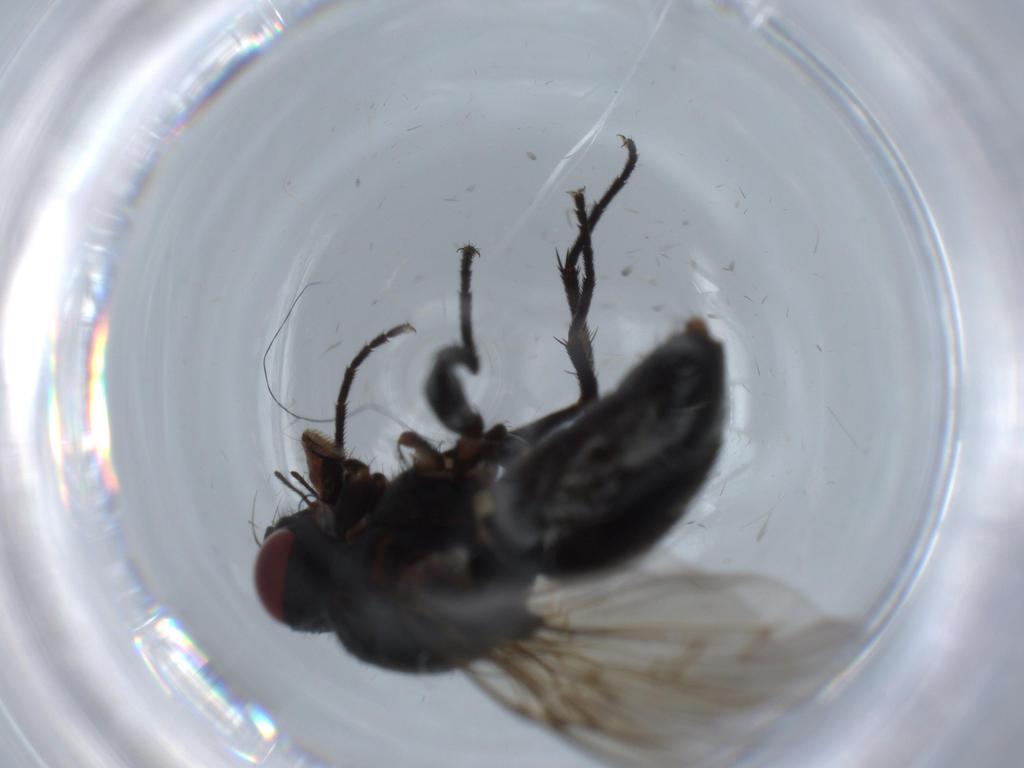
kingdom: Animalia
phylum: Arthropoda
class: Insecta
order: Diptera
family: Muscidae
